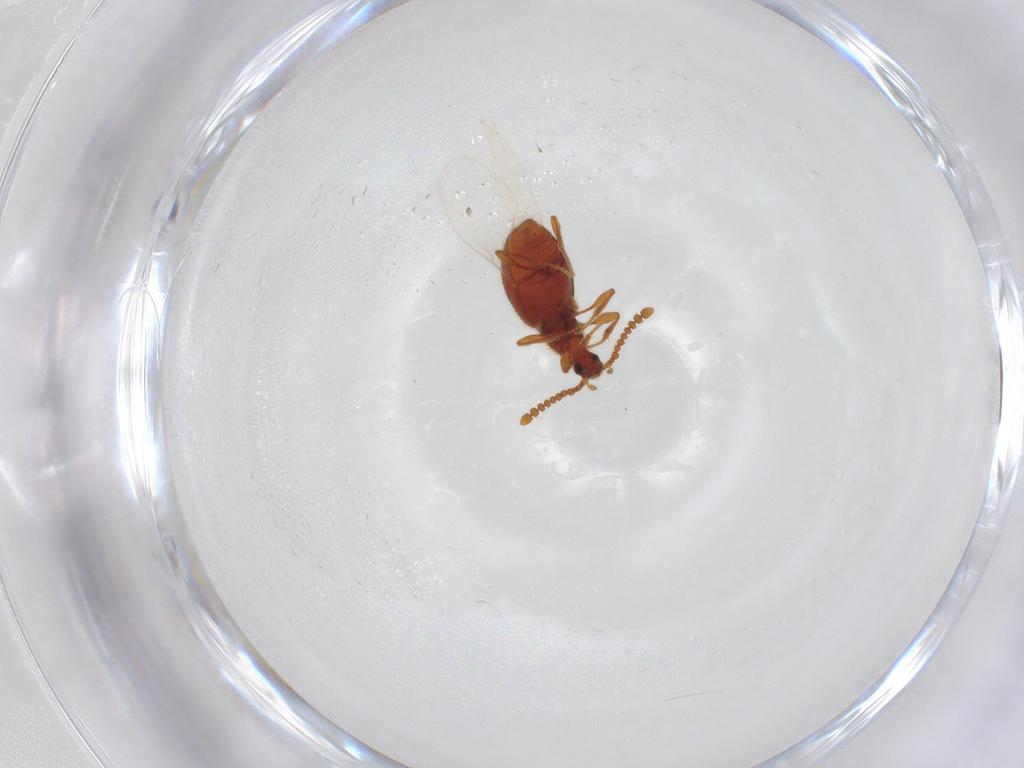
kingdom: Animalia
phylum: Arthropoda
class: Insecta
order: Coleoptera
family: Staphylinidae
